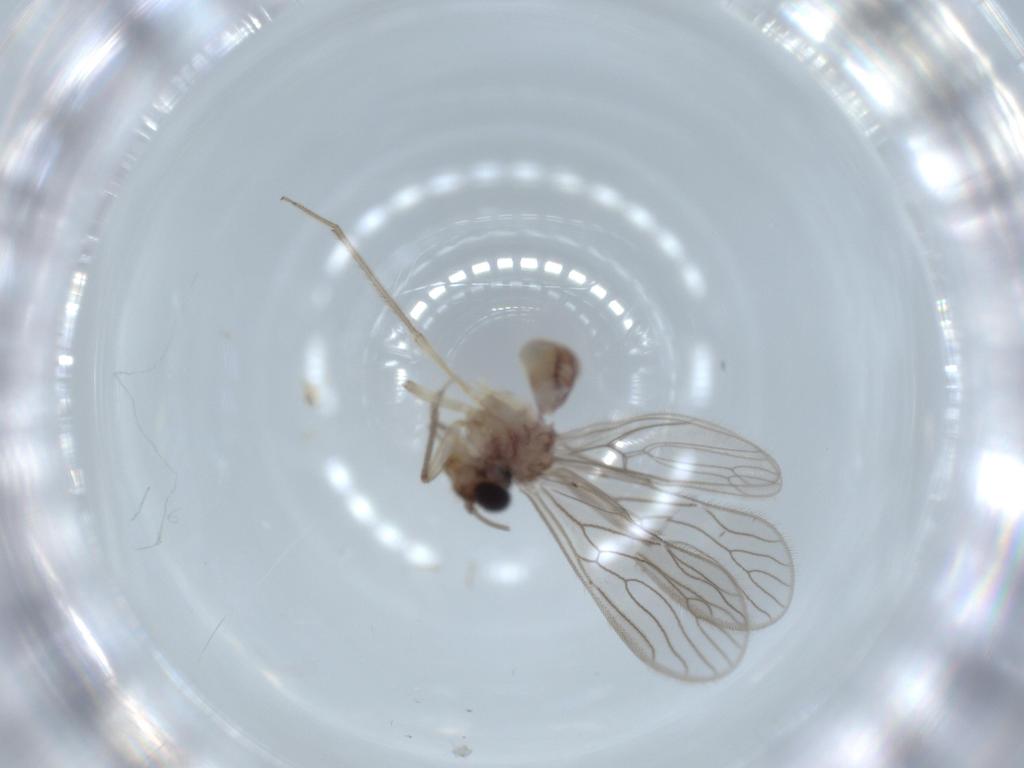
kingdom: Animalia
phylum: Arthropoda
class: Insecta
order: Psocodea
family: Cladiopsocidae
